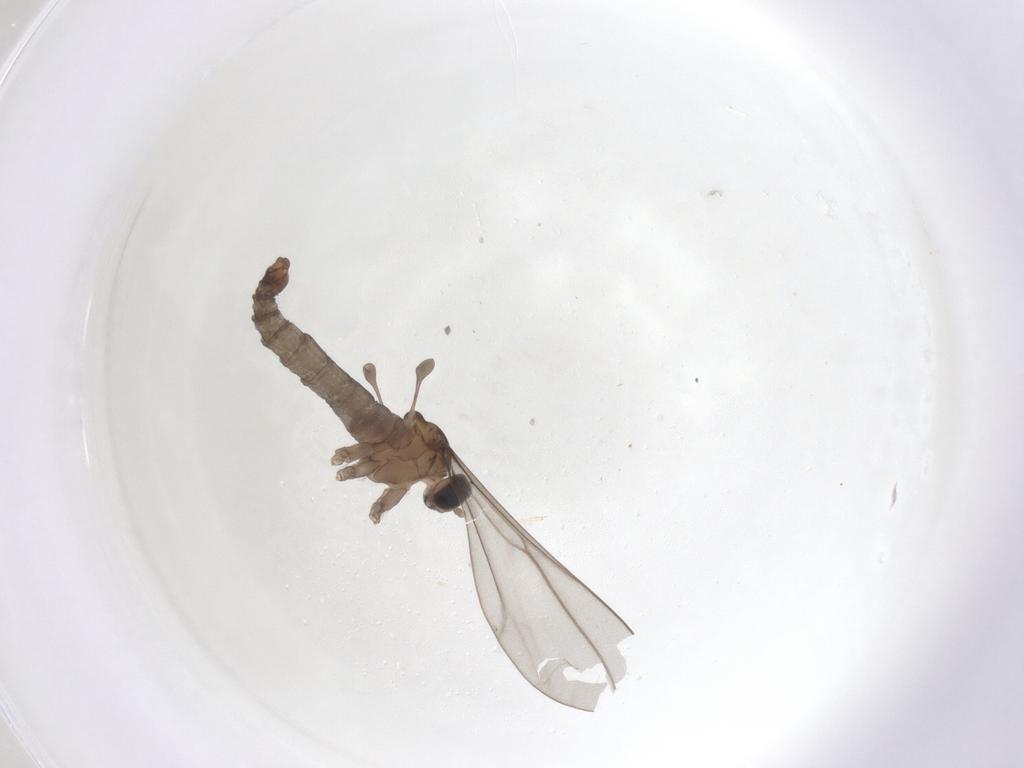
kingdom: Animalia
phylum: Arthropoda
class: Insecta
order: Diptera
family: Cecidomyiidae
